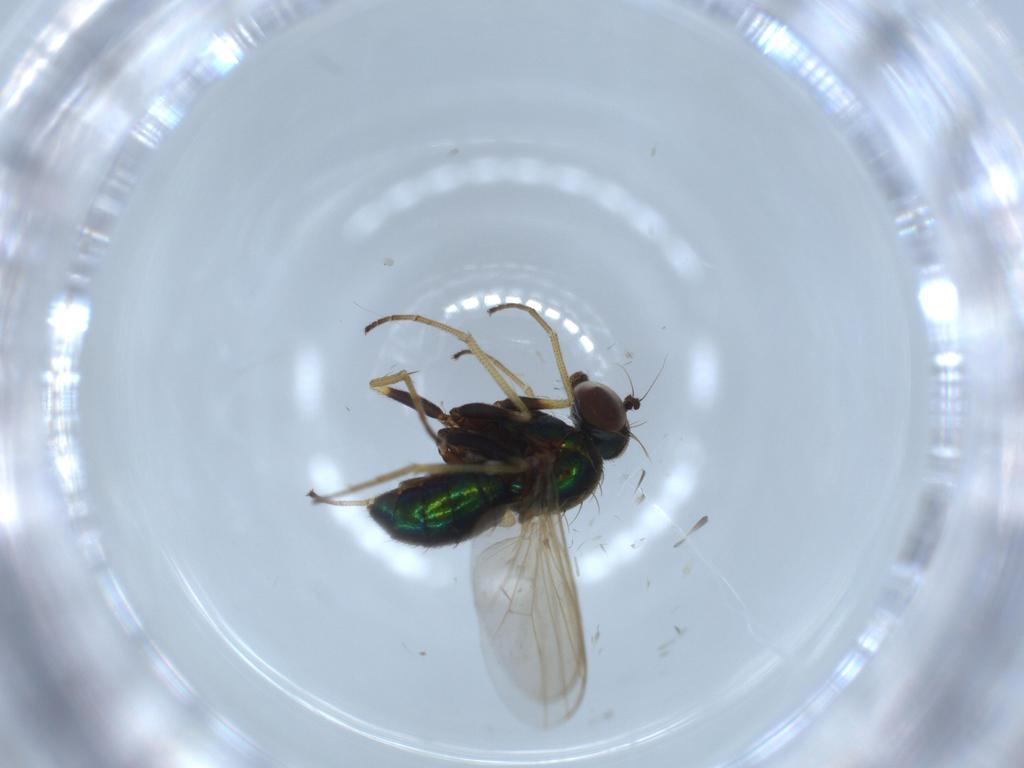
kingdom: Animalia
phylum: Arthropoda
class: Insecta
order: Diptera
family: Dolichopodidae
